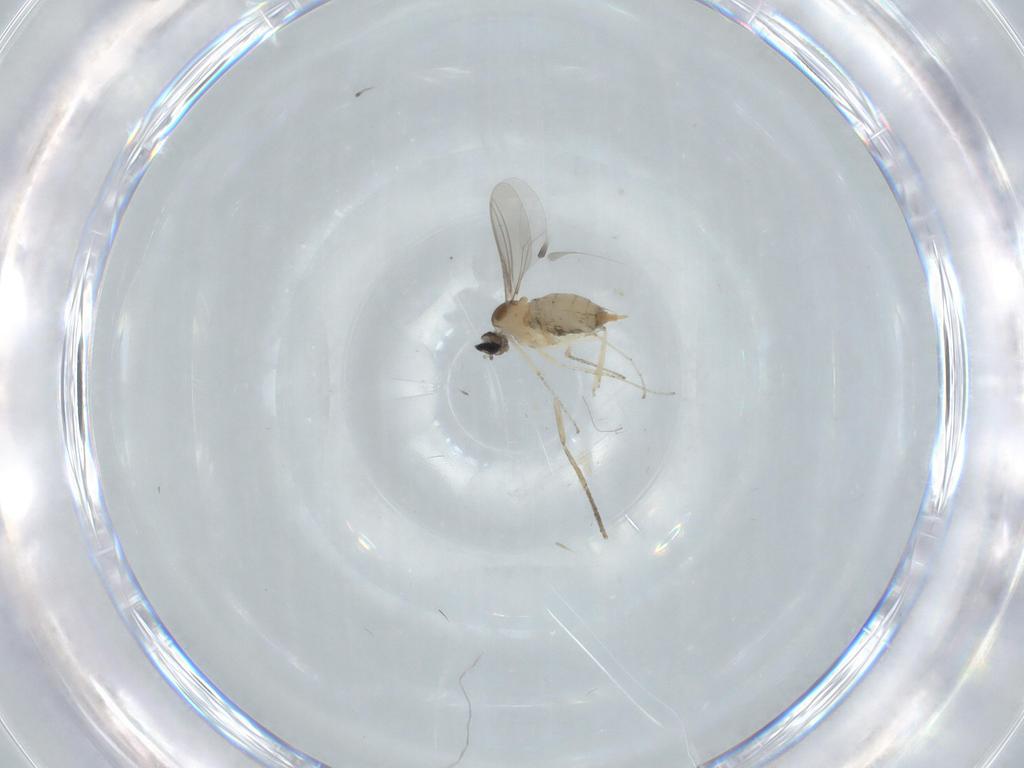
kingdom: Animalia
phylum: Arthropoda
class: Insecta
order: Diptera
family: Cecidomyiidae
